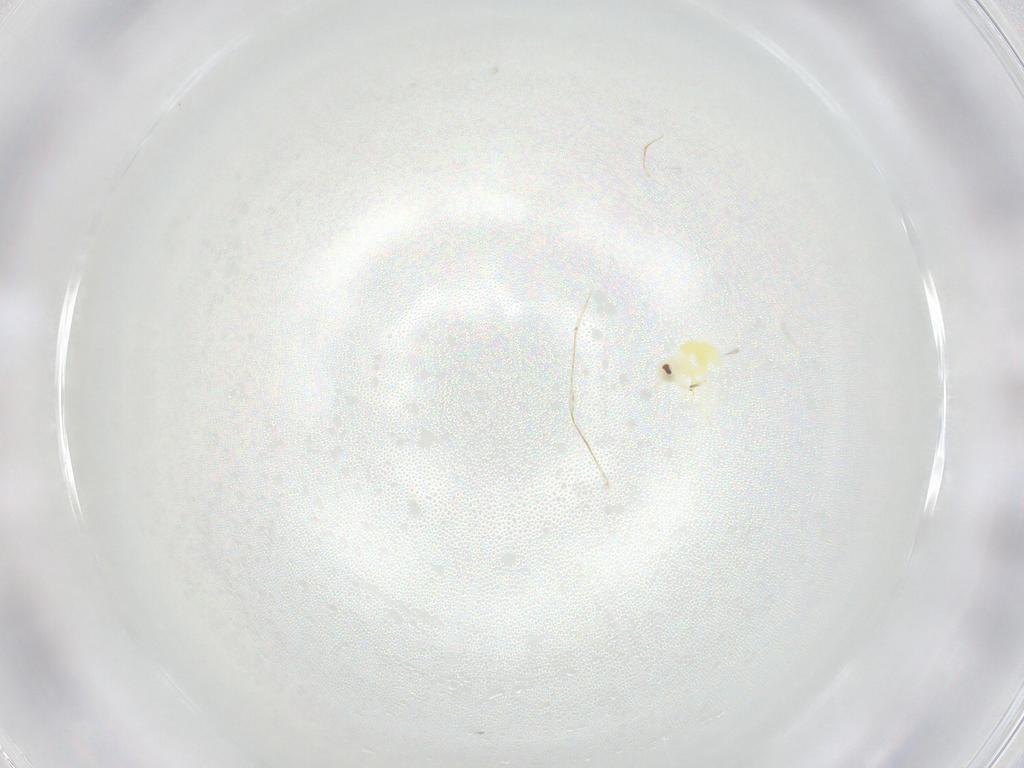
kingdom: Animalia
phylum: Arthropoda
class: Insecta
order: Hemiptera
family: Aleyrodidae
